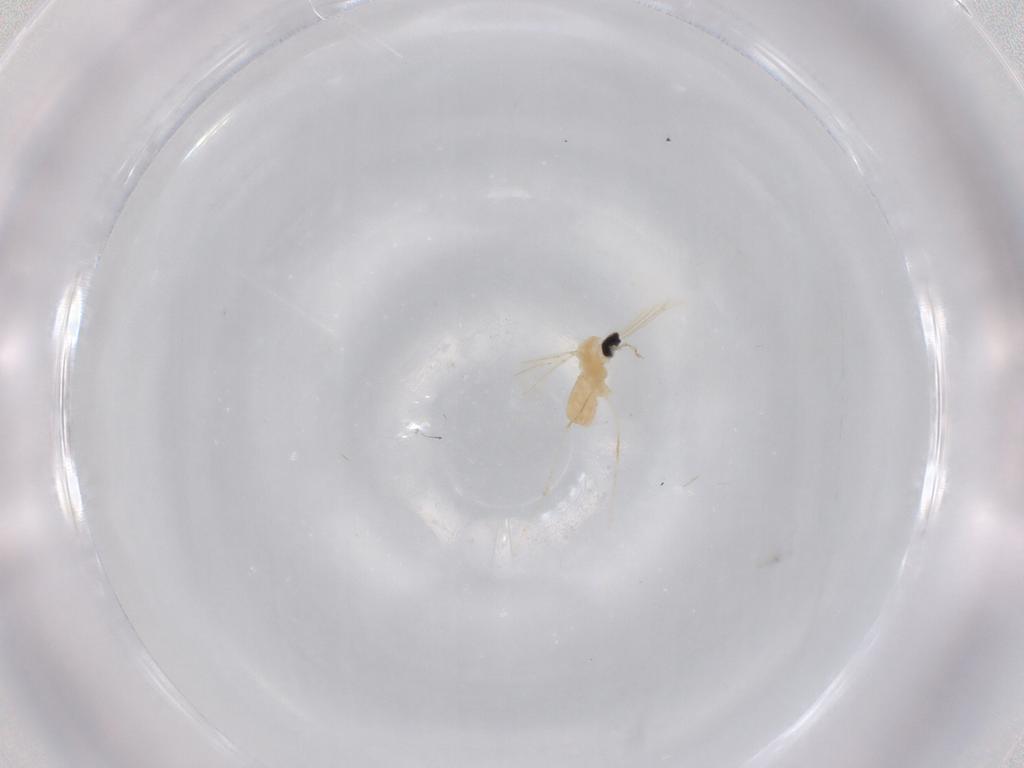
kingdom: Animalia
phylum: Arthropoda
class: Insecta
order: Diptera
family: Cecidomyiidae
